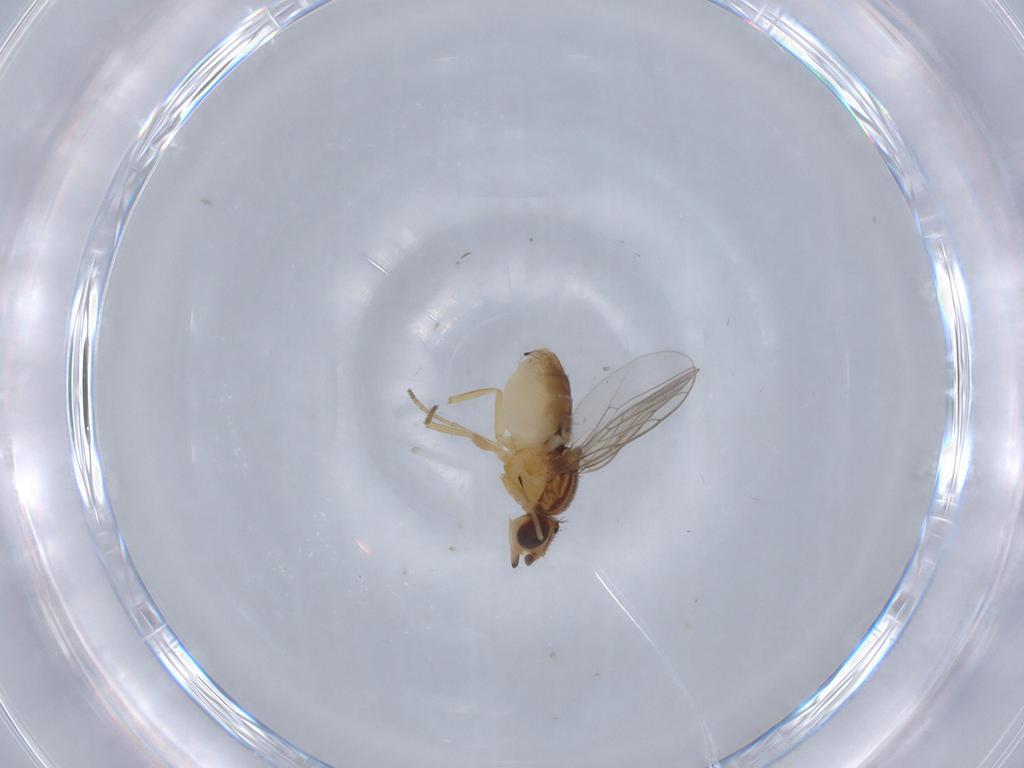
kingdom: Animalia
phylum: Arthropoda
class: Insecta
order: Diptera
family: Chloropidae
